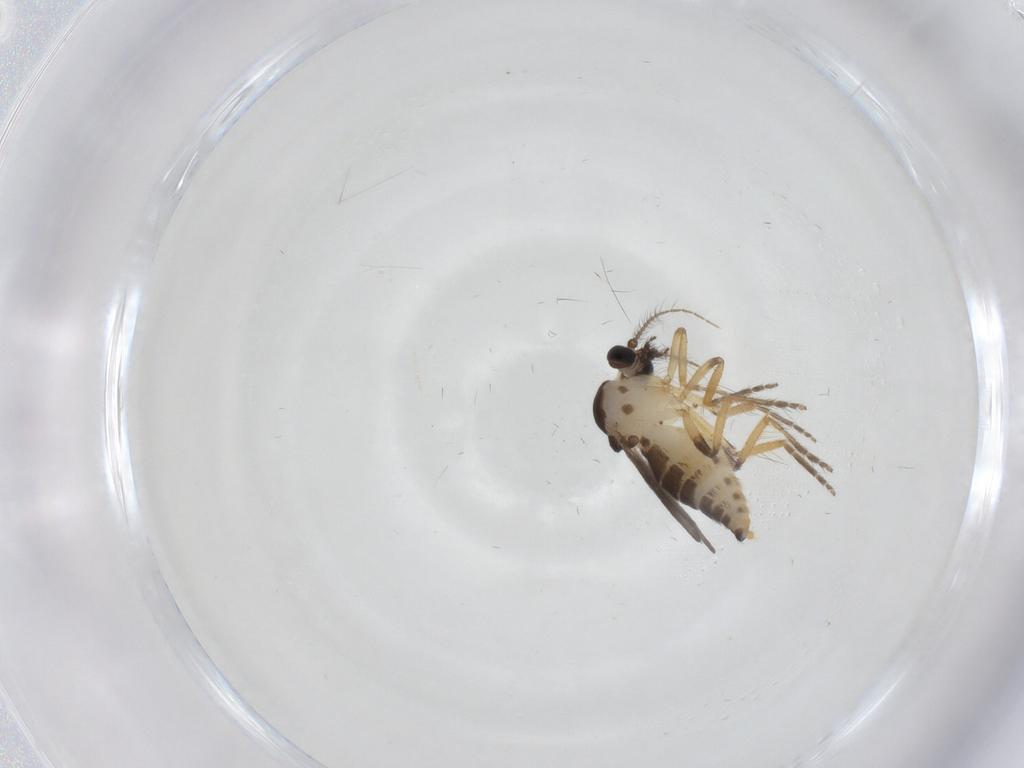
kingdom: Animalia
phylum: Arthropoda
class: Insecta
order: Diptera
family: Ceratopogonidae
